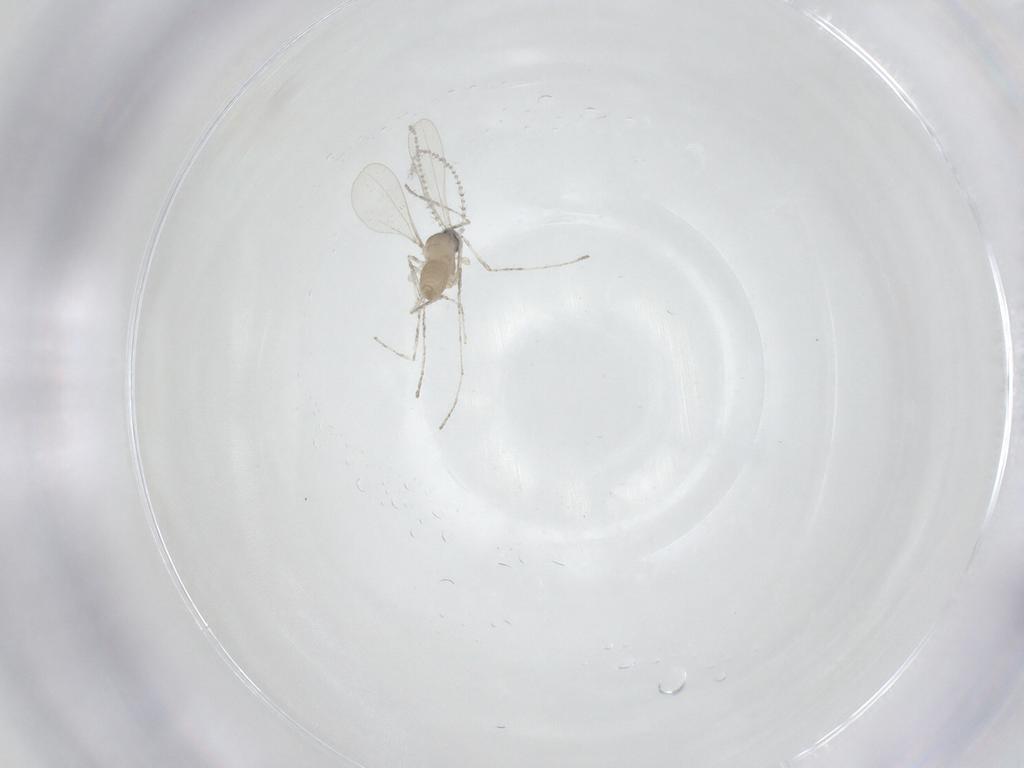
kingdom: Animalia
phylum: Arthropoda
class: Insecta
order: Diptera
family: Cecidomyiidae
